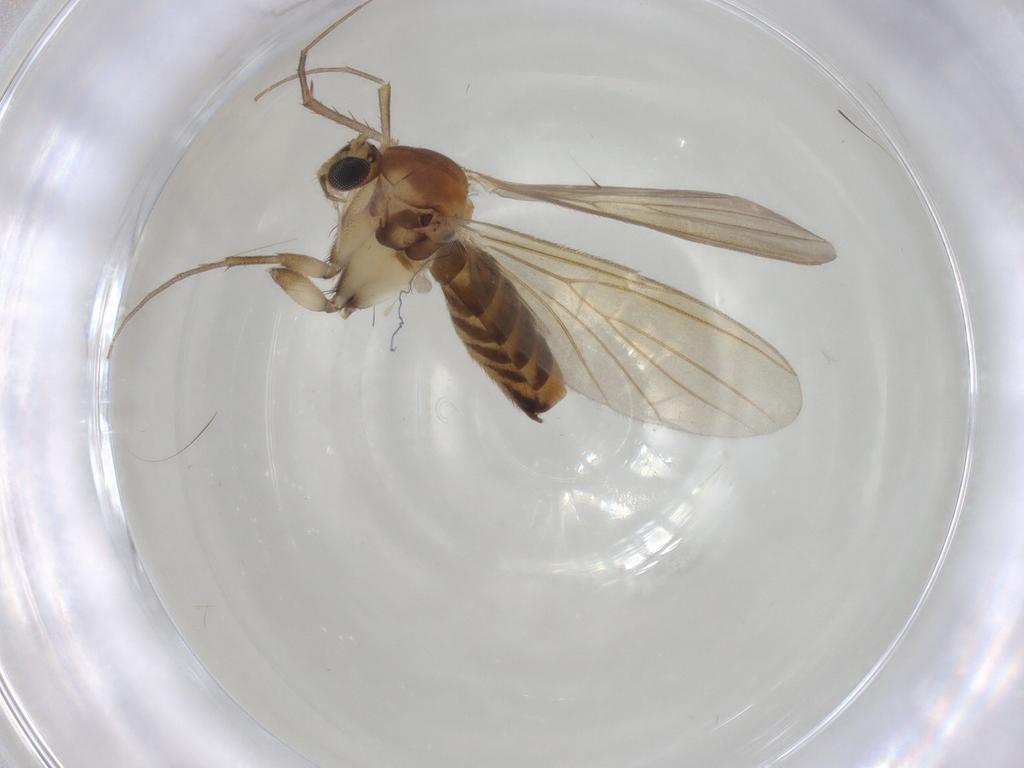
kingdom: Animalia
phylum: Arthropoda
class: Insecta
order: Diptera
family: Mycetophilidae
